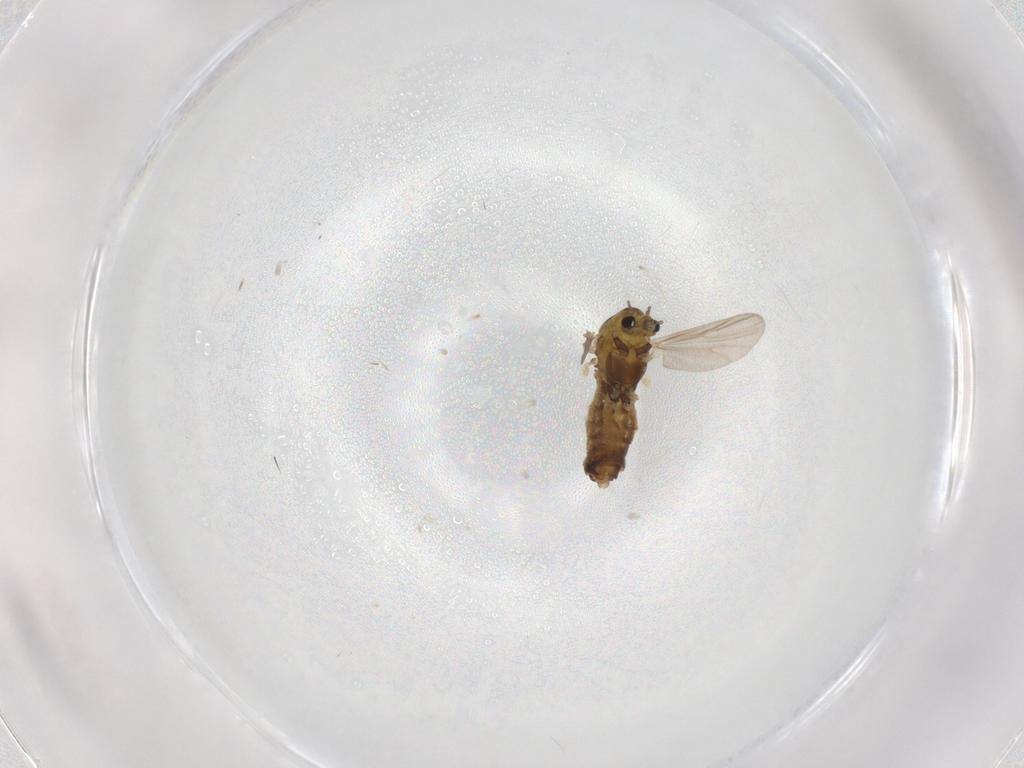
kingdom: Animalia
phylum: Arthropoda
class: Insecta
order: Diptera
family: Chironomidae
